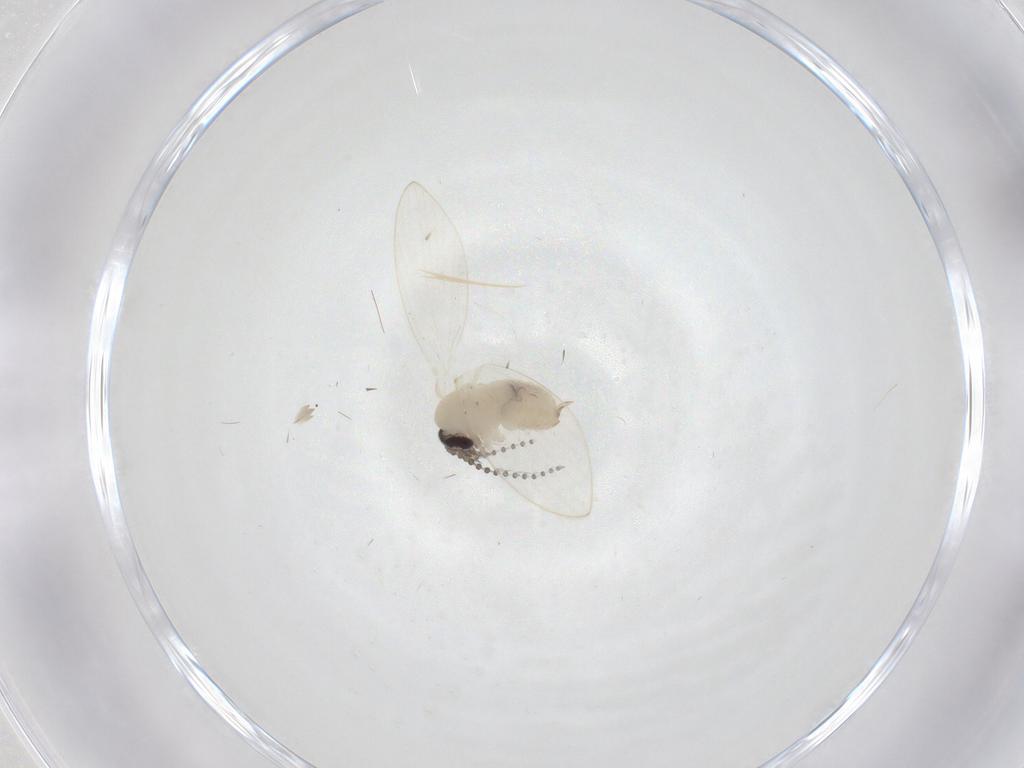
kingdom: Animalia
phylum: Arthropoda
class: Insecta
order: Diptera
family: Psychodidae
